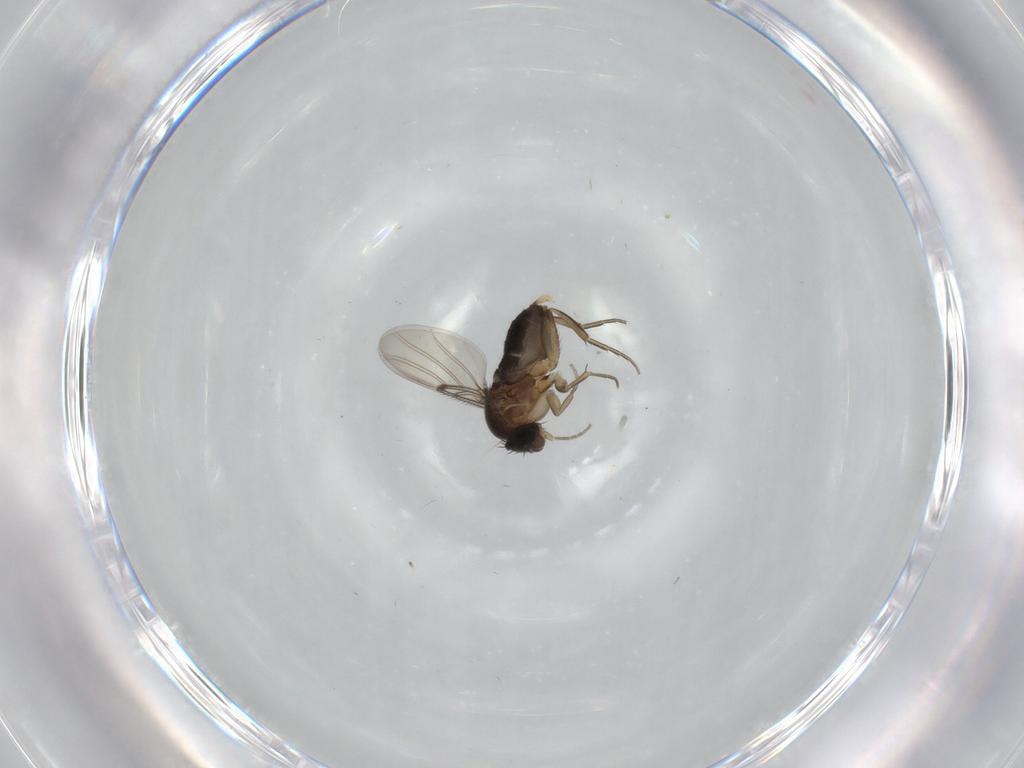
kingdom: Animalia
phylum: Arthropoda
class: Insecta
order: Diptera
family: Phoridae
